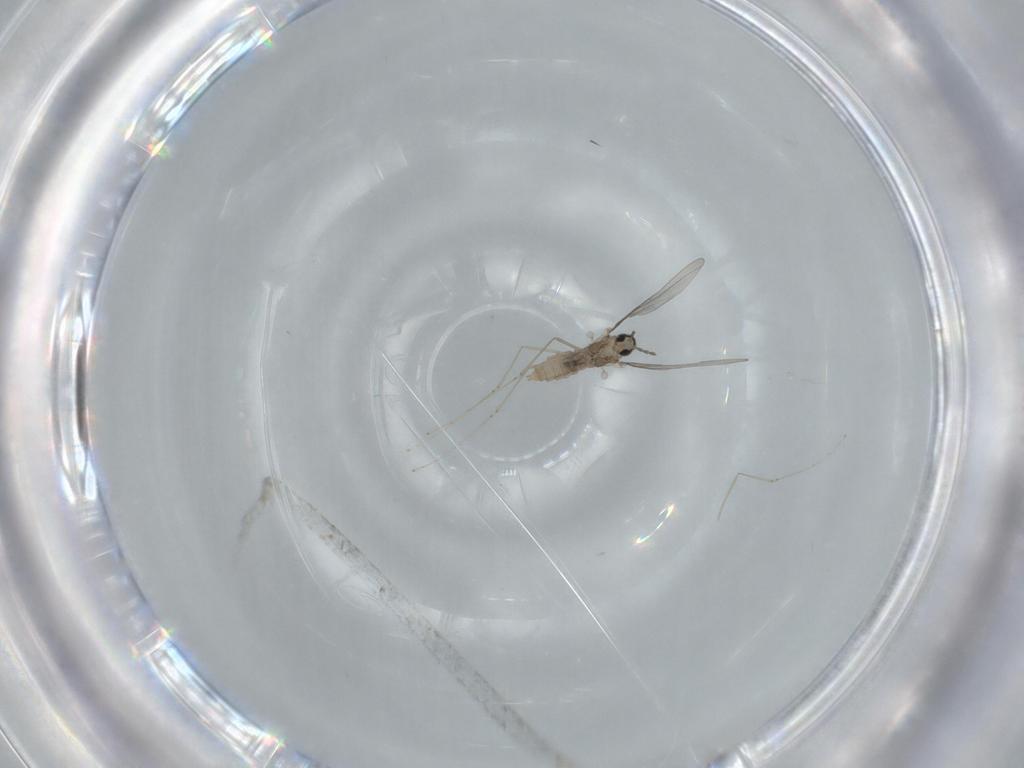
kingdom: Animalia
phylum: Arthropoda
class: Insecta
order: Diptera
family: Cecidomyiidae
